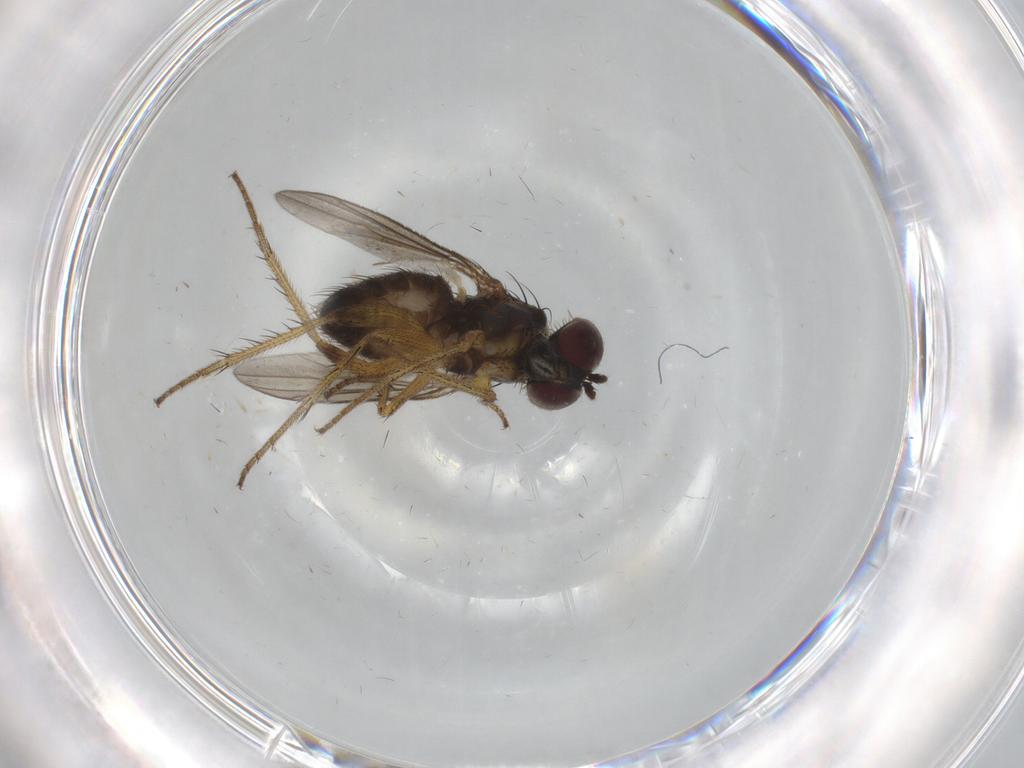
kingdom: Animalia
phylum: Arthropoda
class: Insecta
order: Diptera
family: Dolichopodidae
